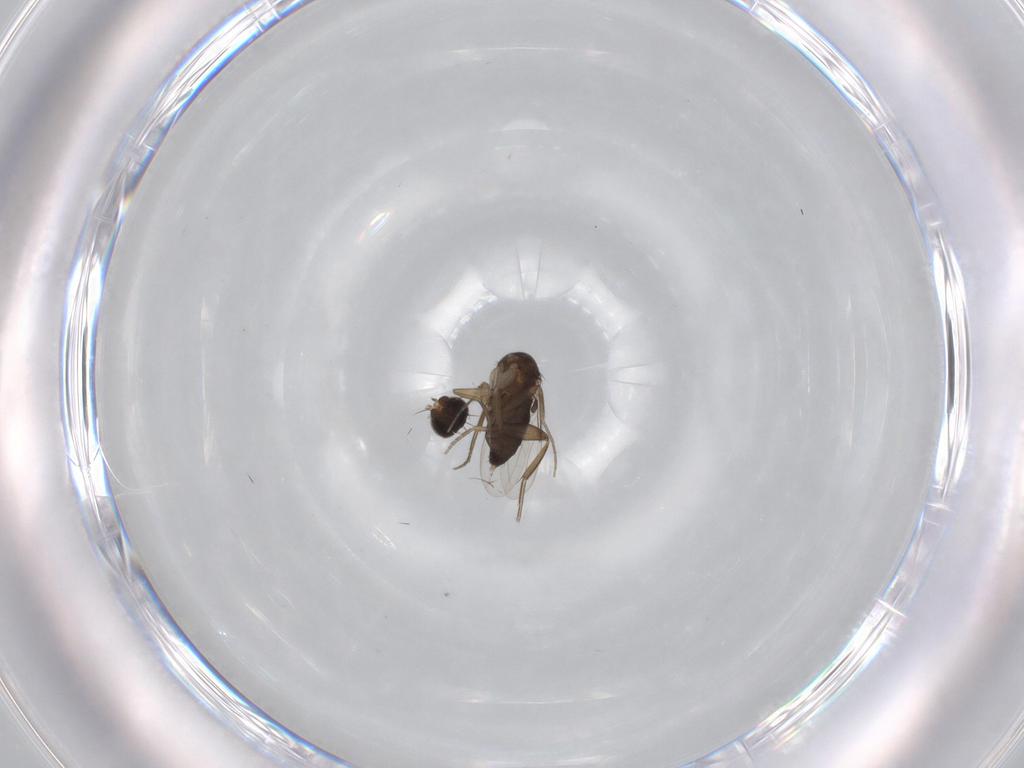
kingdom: Animalia
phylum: Arthropoda
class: Insecta
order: Diptera
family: Phoridae
